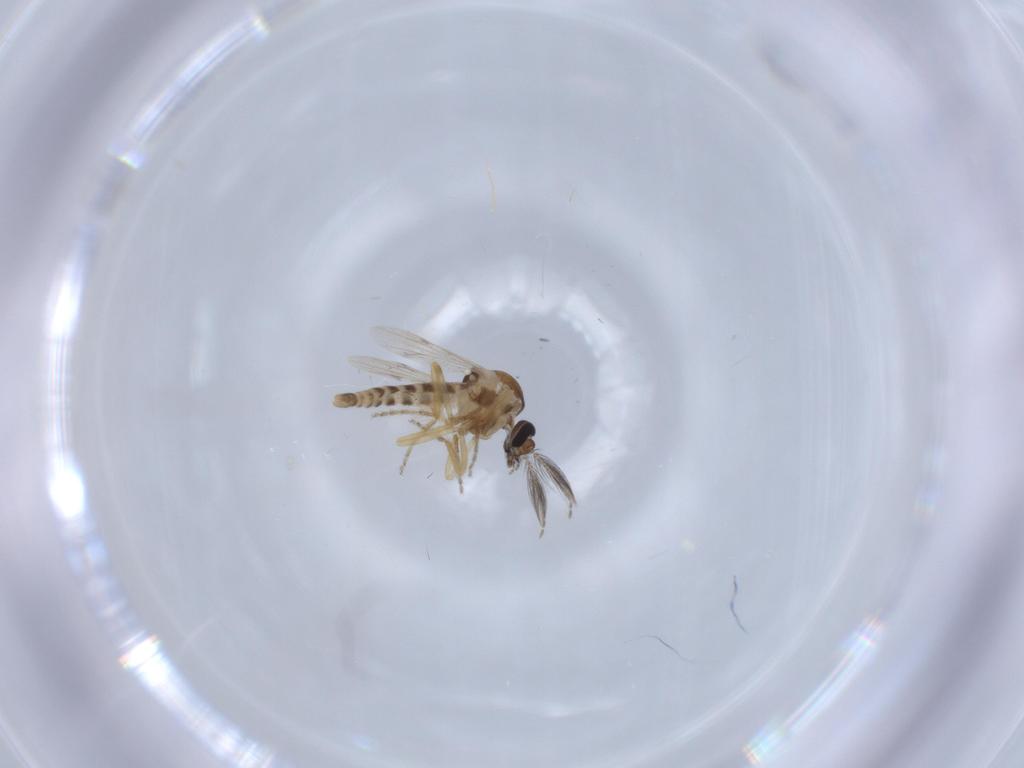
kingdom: Animalia
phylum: Arthropoda
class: Insecta
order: Diptera
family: Ceratopogonidae
